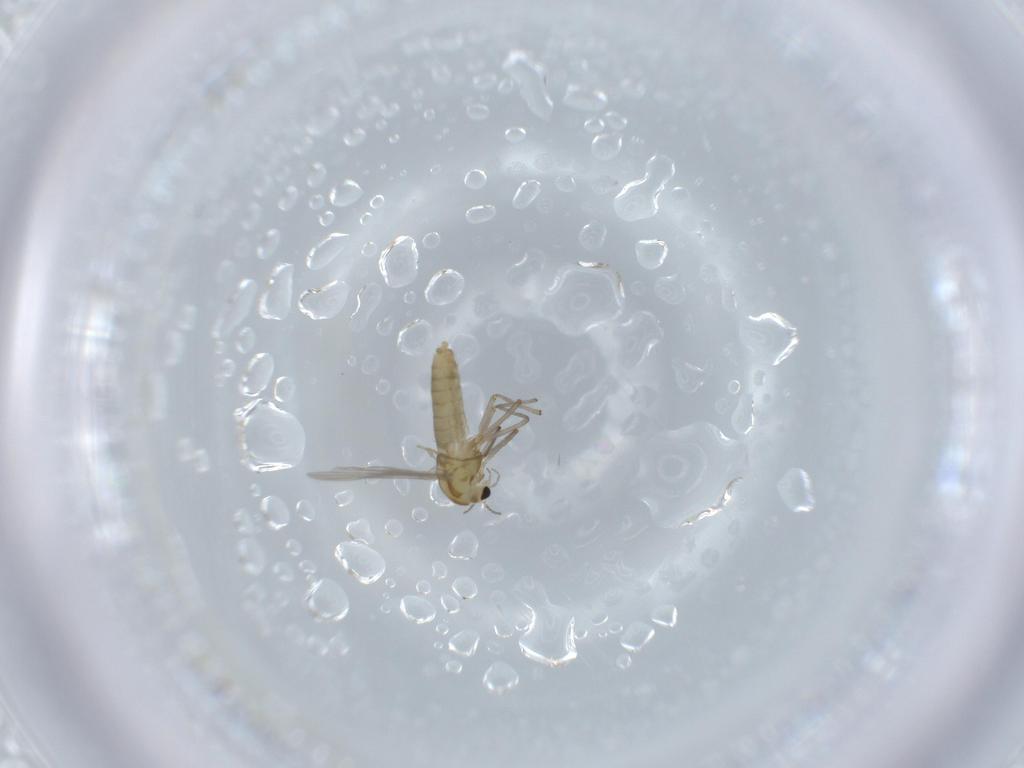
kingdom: Animalia
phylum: Arthropoda
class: Insecta
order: Diptera
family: Chironomidae
